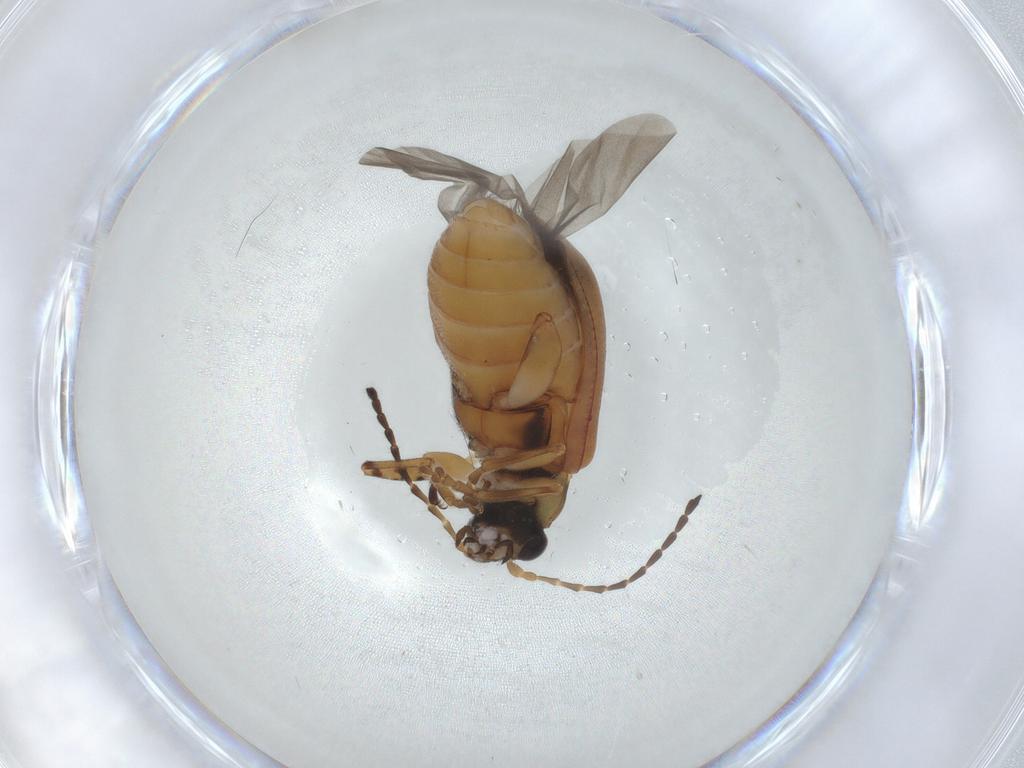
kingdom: Animalia
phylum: Arthropoda
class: Insecta
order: Coleoptera
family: Chrysomelidae
